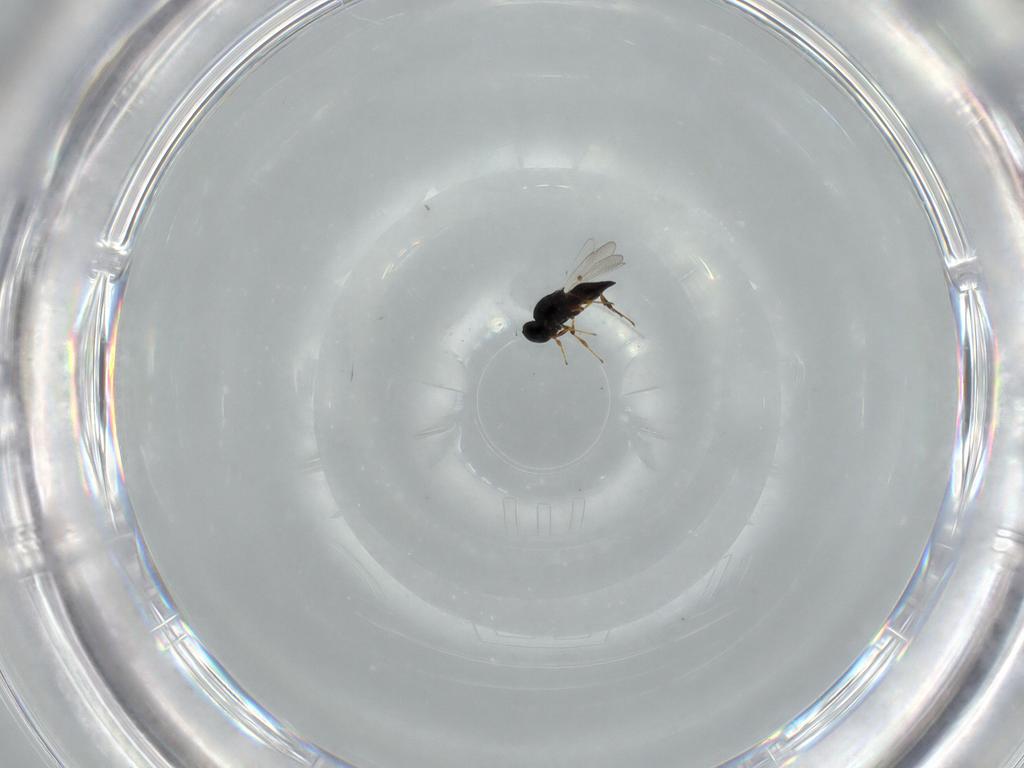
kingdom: Animalia
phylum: Arthropoda
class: Insecta
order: Hymenoptera
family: Platygastridae
